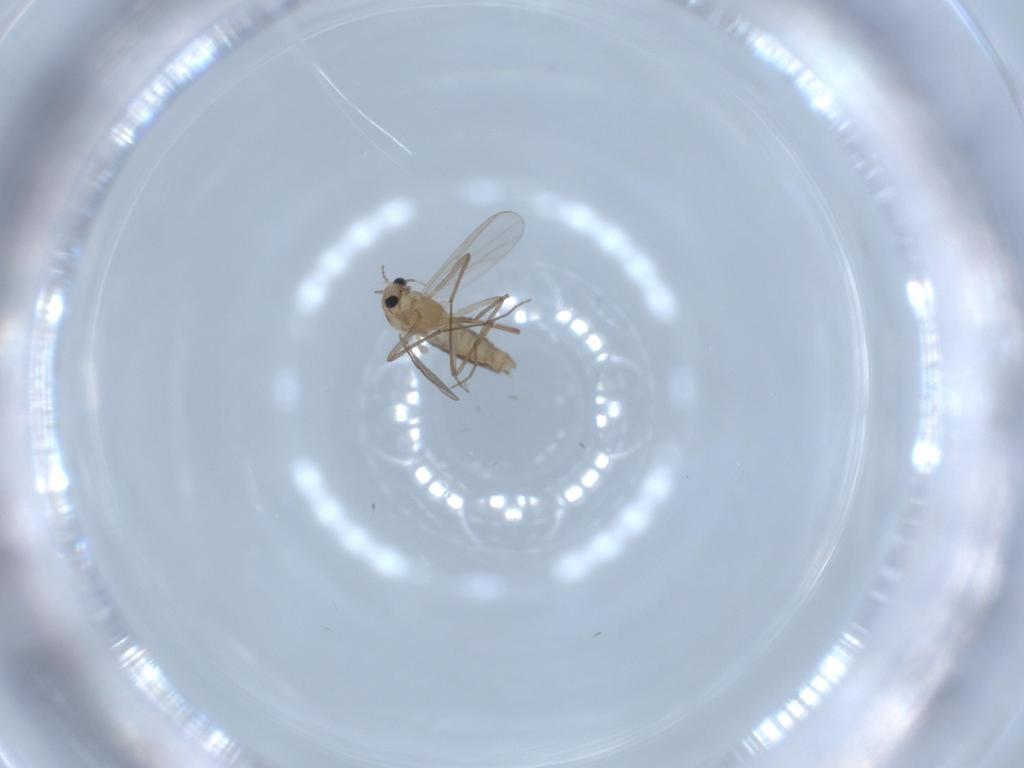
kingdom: Animalia
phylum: Arthropoda
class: Insecta
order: Diptera
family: Chironomidae
